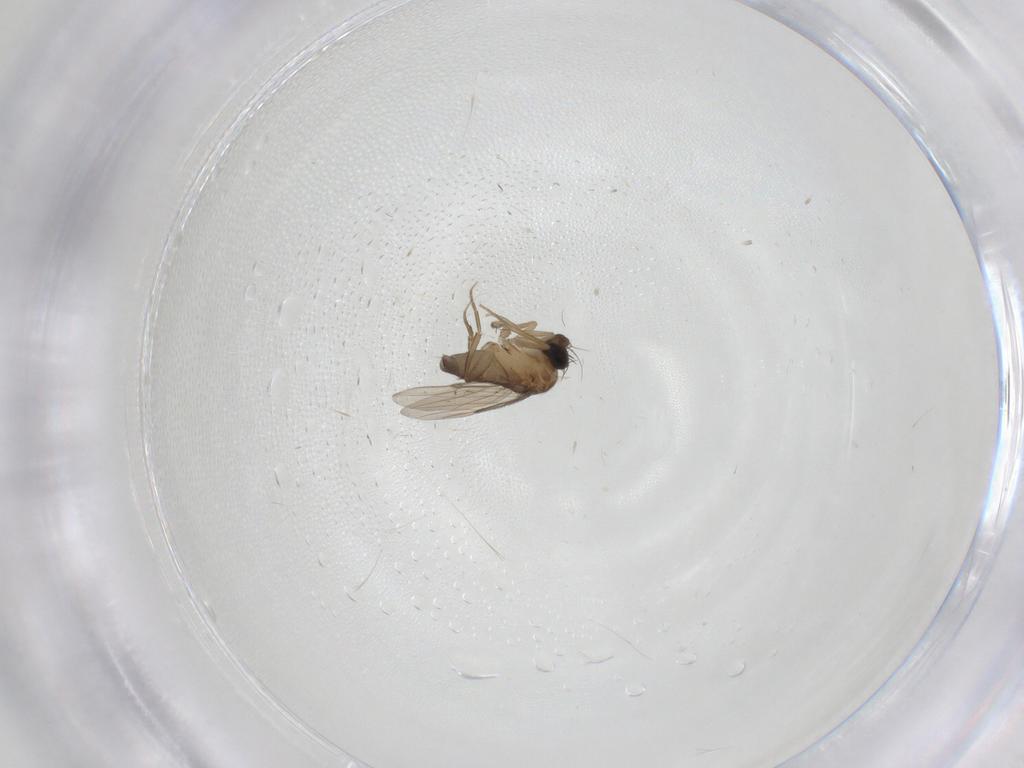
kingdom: Animalia
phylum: Arthropoda
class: Insecta
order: Diptera
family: Phoridae
